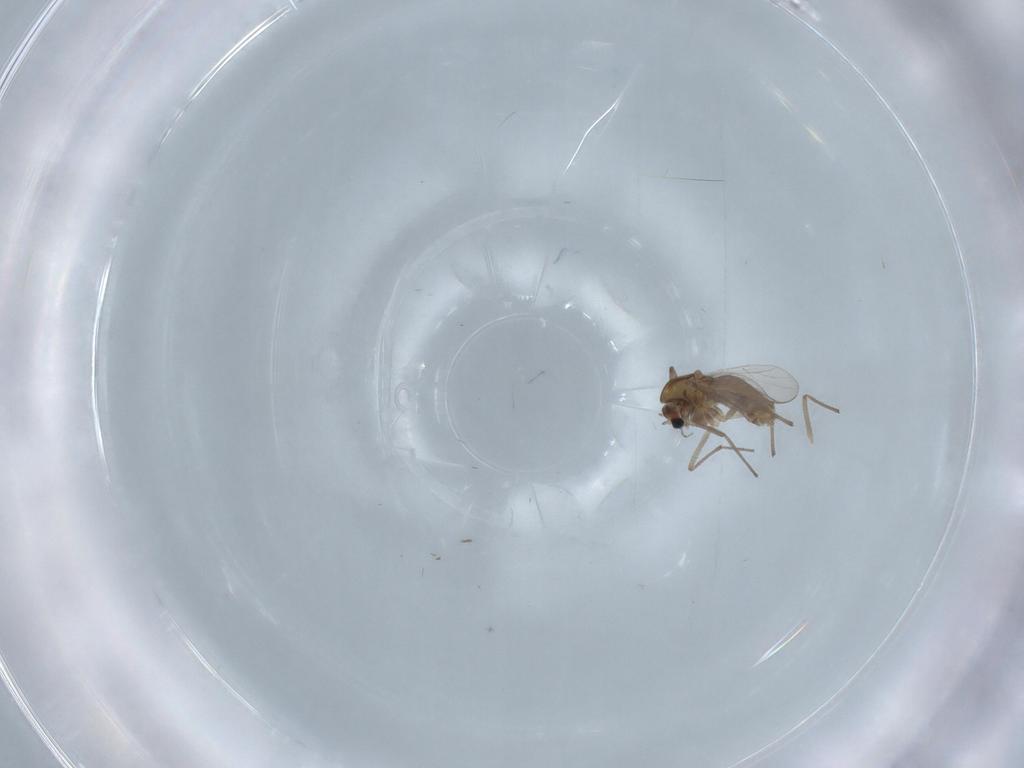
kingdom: Animalia
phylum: Arthropoda
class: Insecta
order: Diptera
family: Chironomidae
